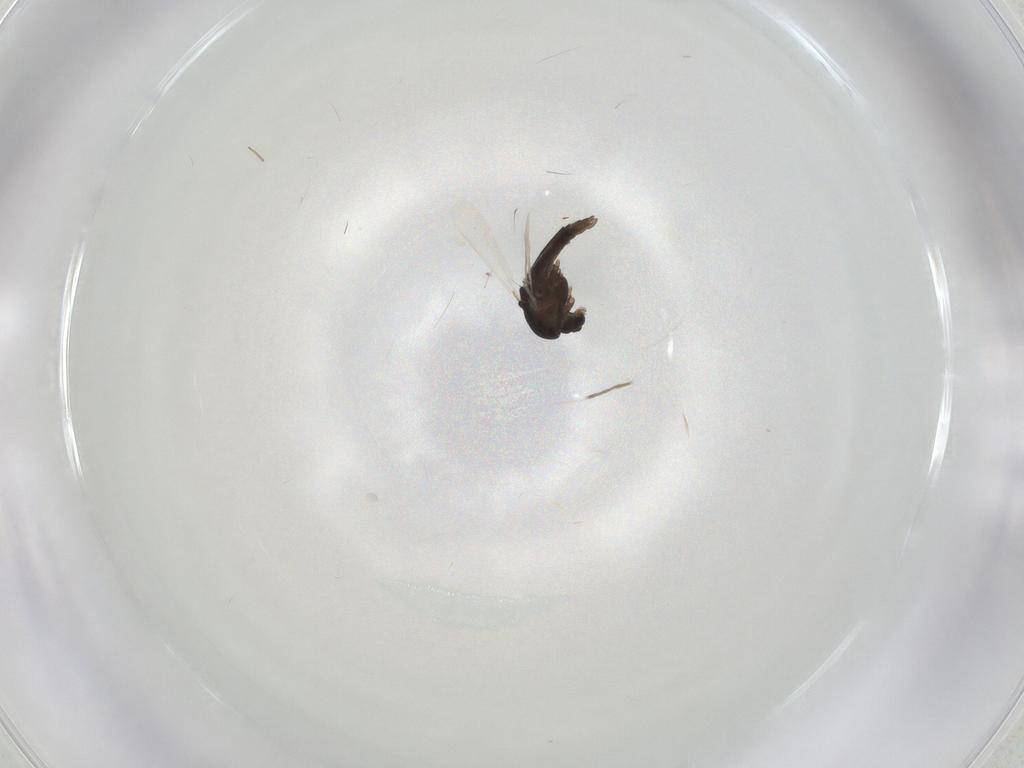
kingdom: Animalia
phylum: Arthropoda
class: Insecta
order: Diptera
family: Chironomidae
